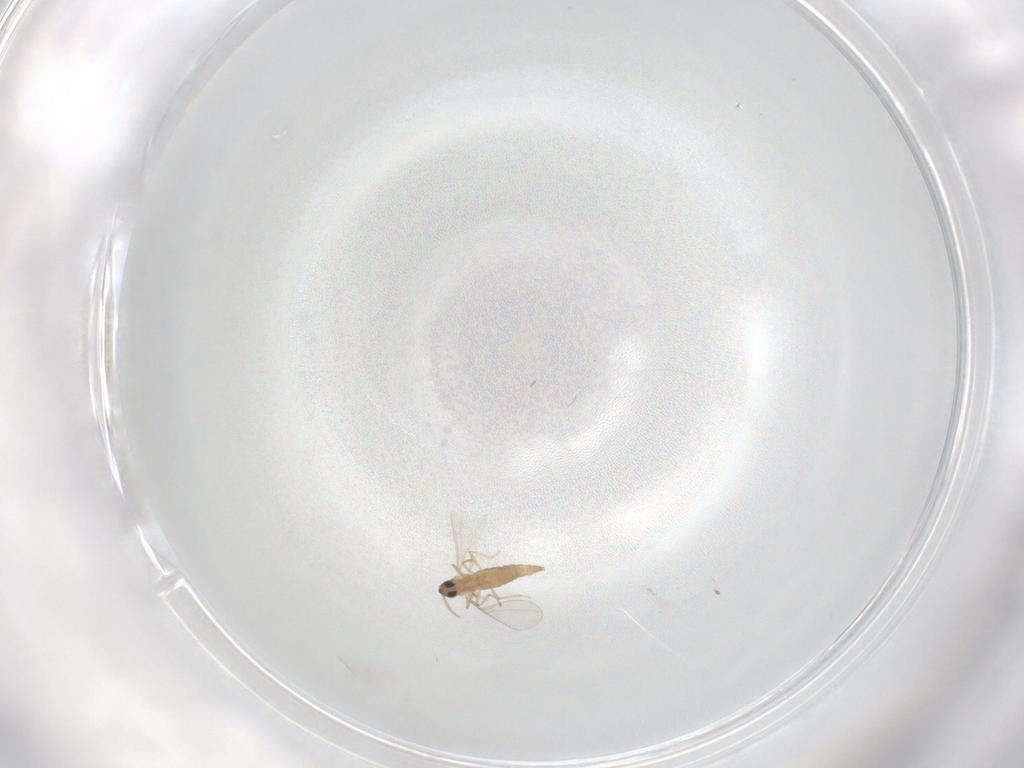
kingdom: Animalia
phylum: Arthropoda
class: Insecta
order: Diptera
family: Cecidomyiidae
